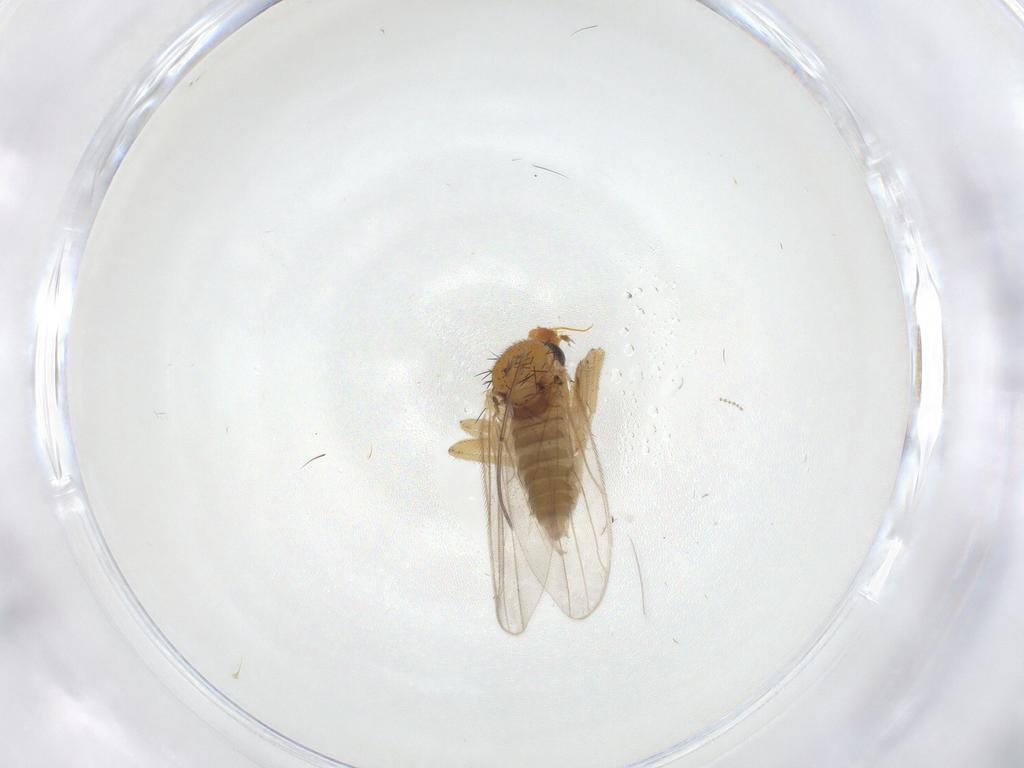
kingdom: Animalia
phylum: Arthropoda
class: Insecta
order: Diptera
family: Hybotidae
